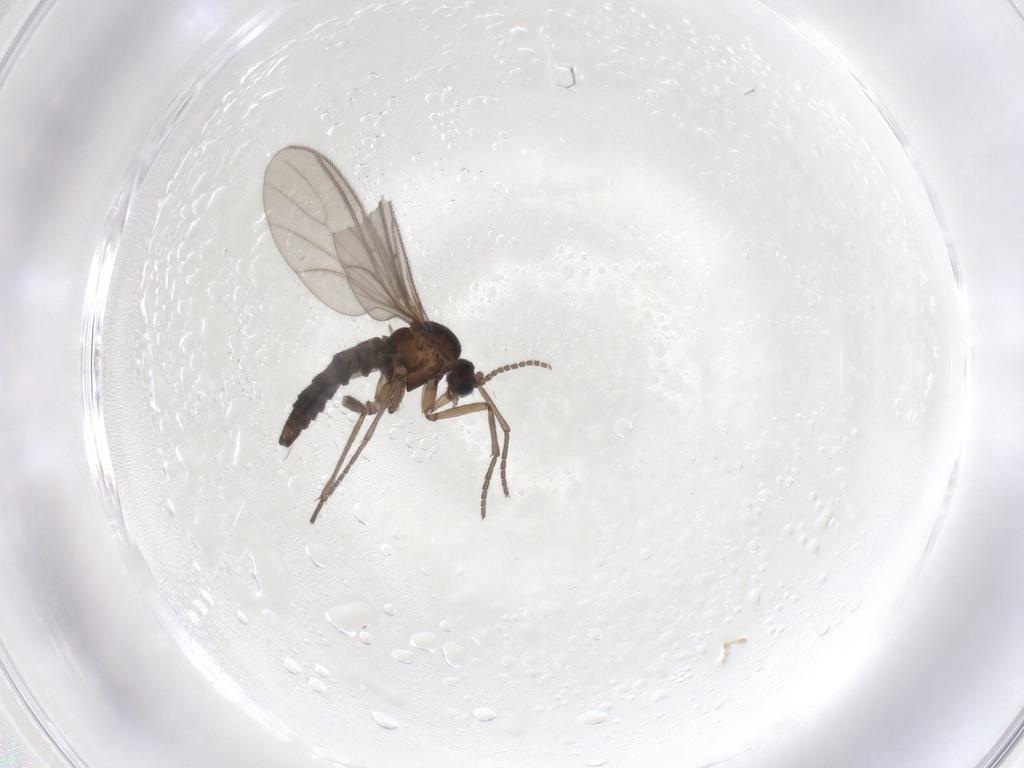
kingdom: Animalia
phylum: Arthropoda
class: Insecta
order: Diptera
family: Sciaridae
